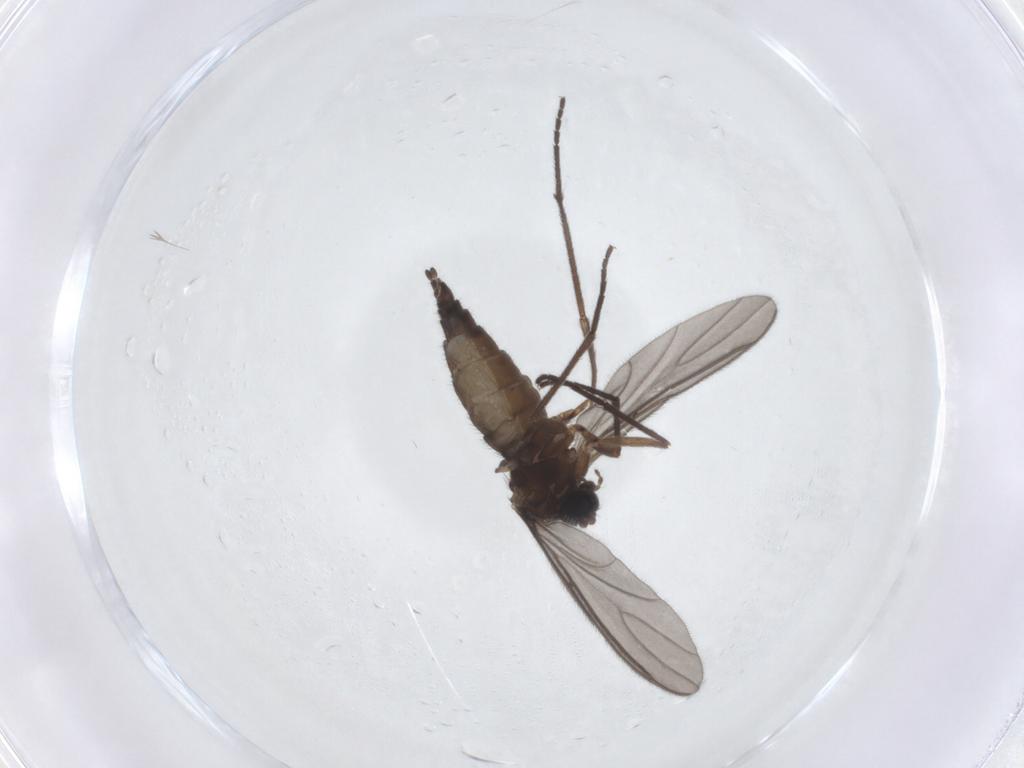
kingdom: Animalia
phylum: Arthropoda
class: Insecta
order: Diptera
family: Sciaridae
